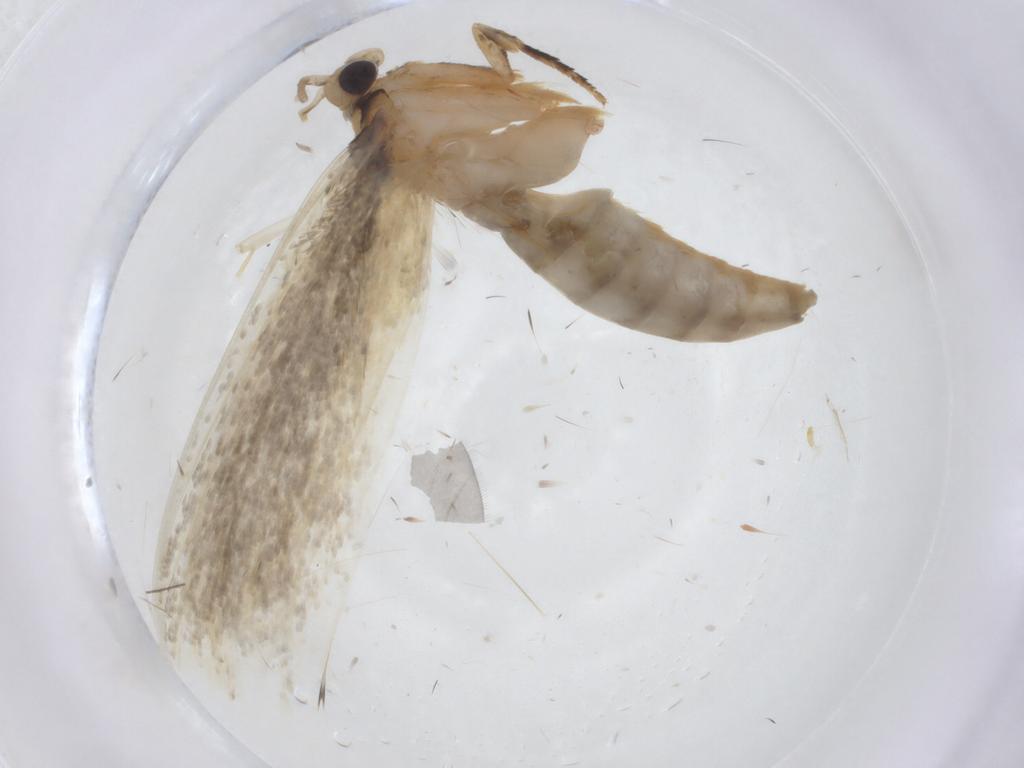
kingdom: Animalia
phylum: Arthropoda
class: Insecta
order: Lepidoptera
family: Tineidae
